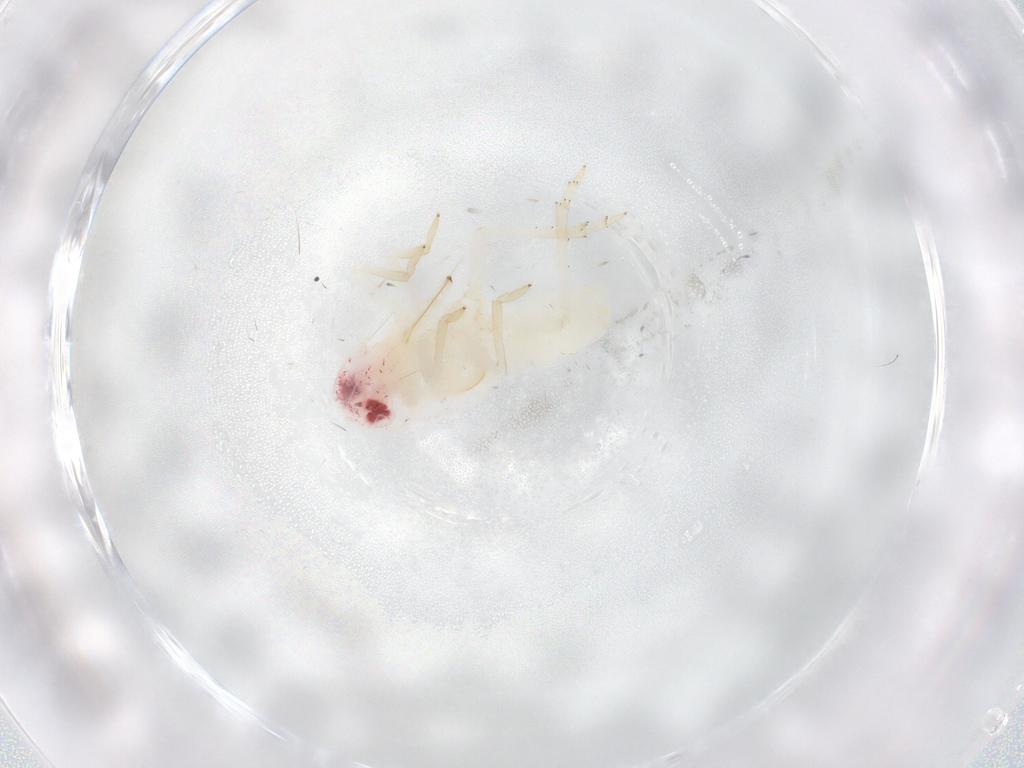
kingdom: Animalia
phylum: Arthropoda
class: Insecta
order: Hemiptera
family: Tropiduchidae
